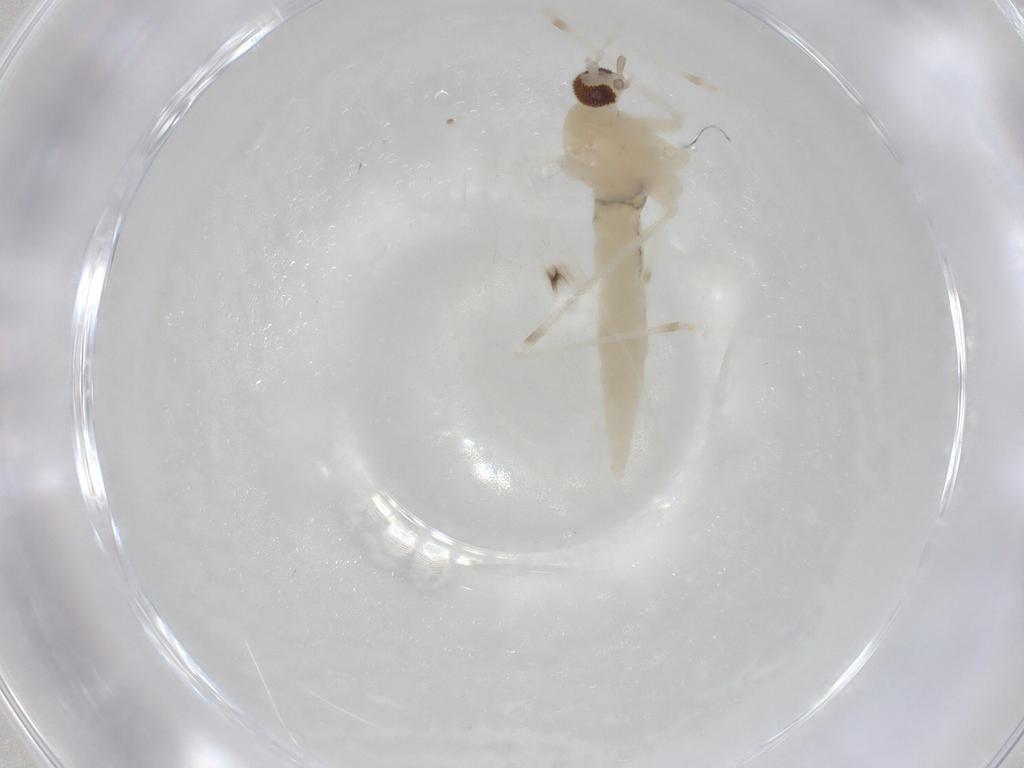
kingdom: Animalia
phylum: Arthropoda
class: Insecta
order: Diptera
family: Cecidomyiidae
